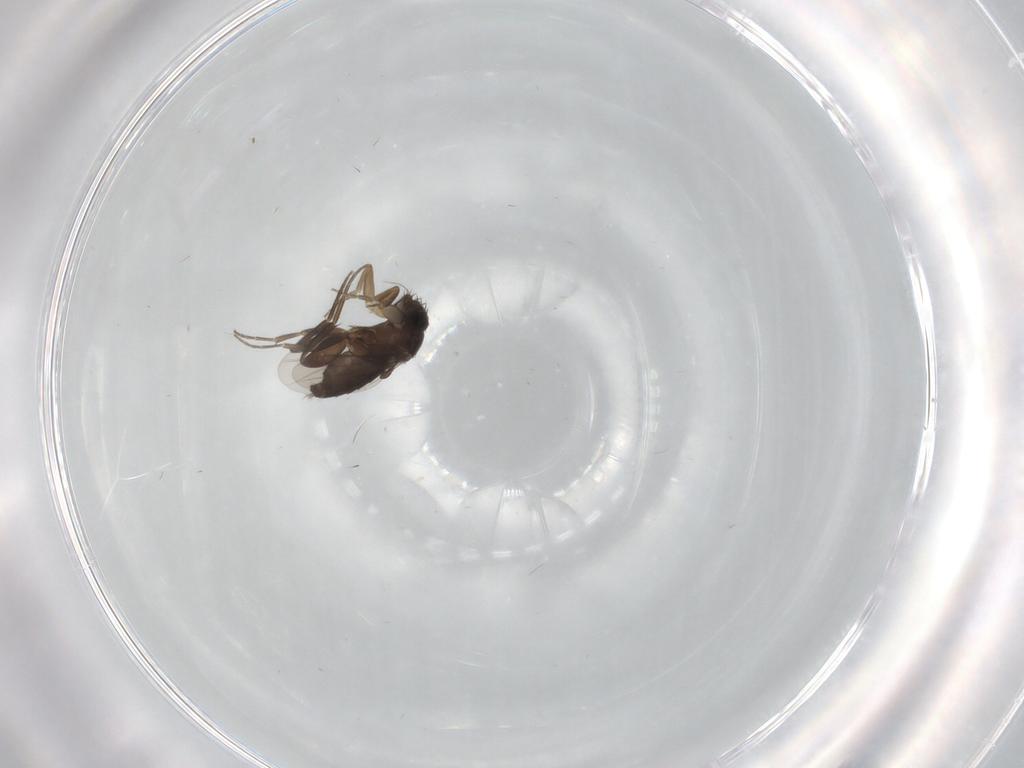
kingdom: Animalia
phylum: Arthropoda
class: Insecta
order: Diptera
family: Phoridae
